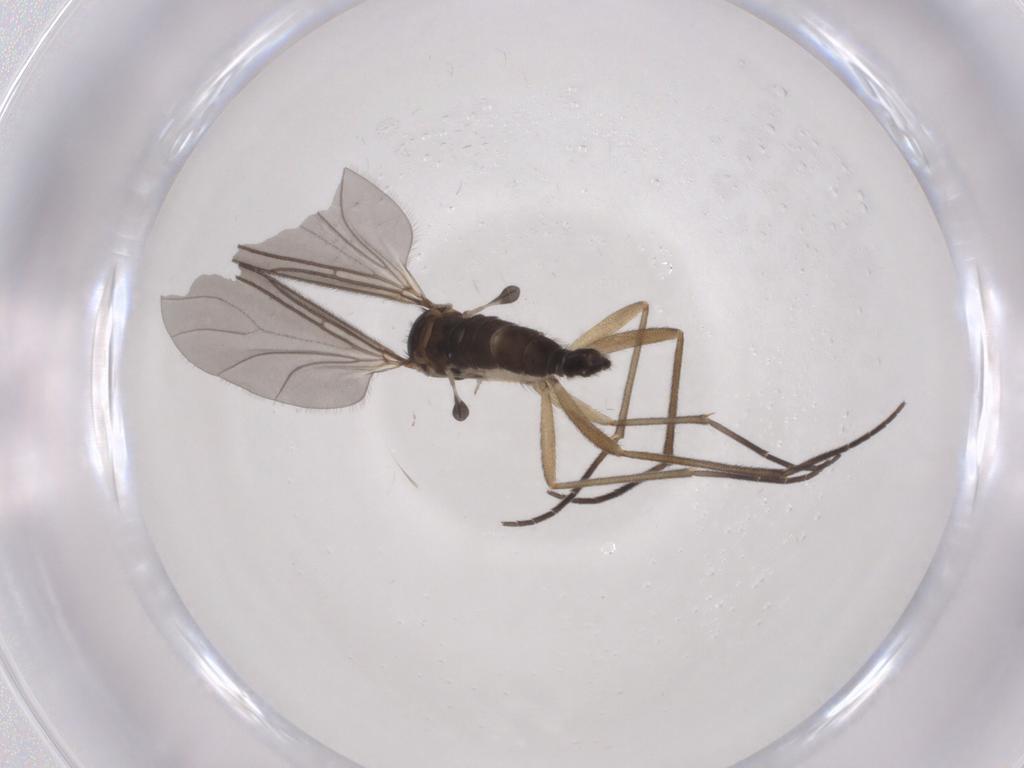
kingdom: Animalia
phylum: Arthropoda
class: Insecta
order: Diptera
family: Sciaridae
